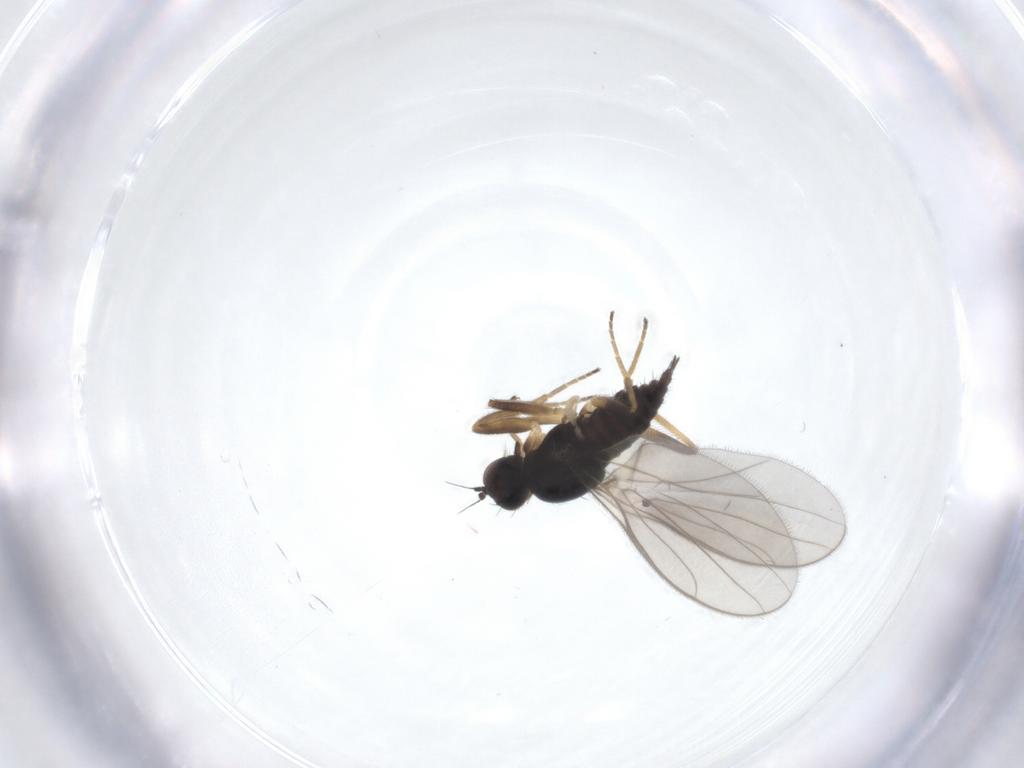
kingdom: Animalia
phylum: Arthropoda
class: Insecta
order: Diptera
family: Hybotidae
